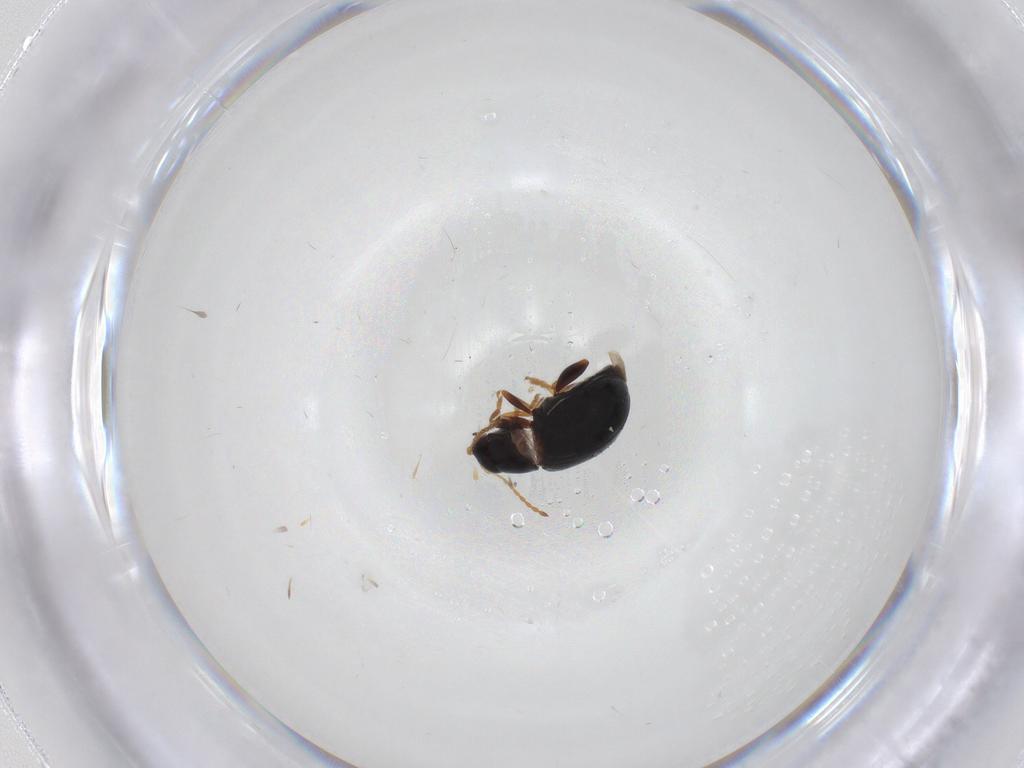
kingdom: Animalia
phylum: Arthropoda
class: Insecta
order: Coleoptera
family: Chrysomelidae
